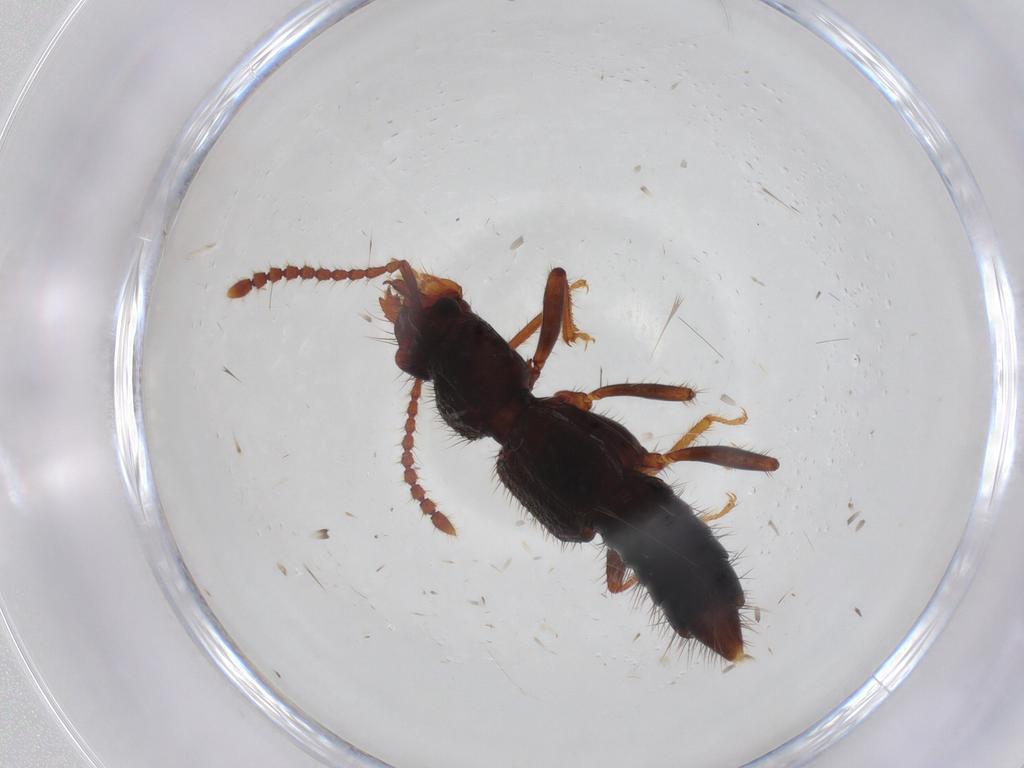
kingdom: Animalia
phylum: Arthropoda
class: Insecta
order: Coleoptera
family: Staphylinidae
